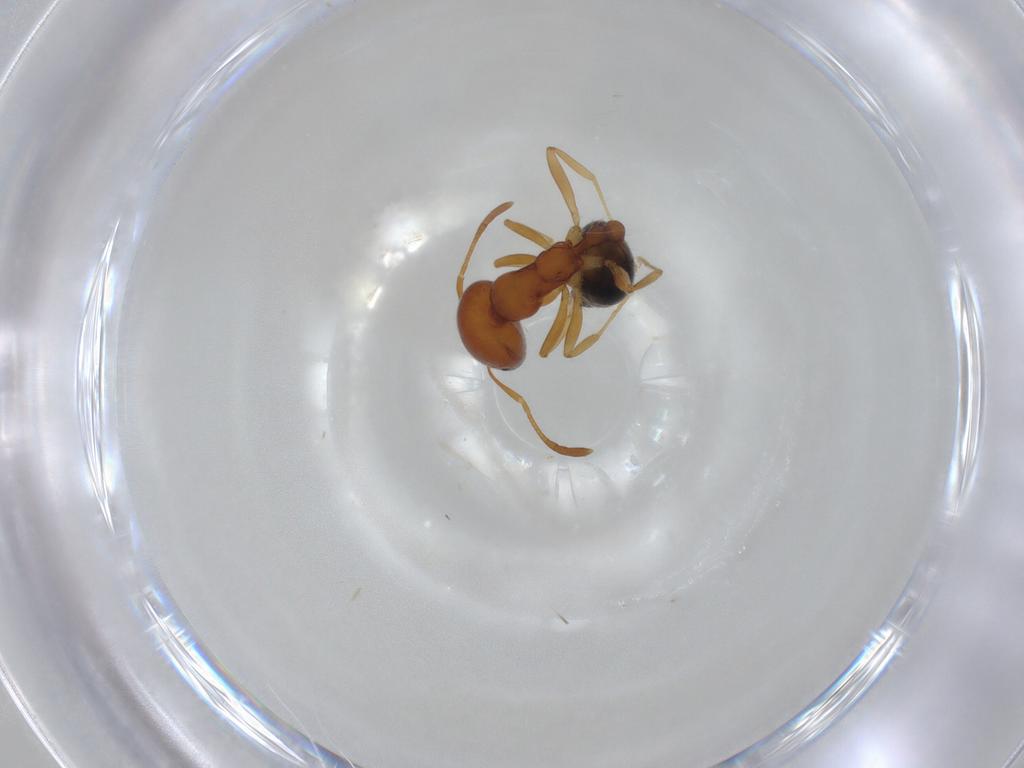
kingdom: Animalia
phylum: Arthropoda
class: Insecta
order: Hymenoptera
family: Formicidae
